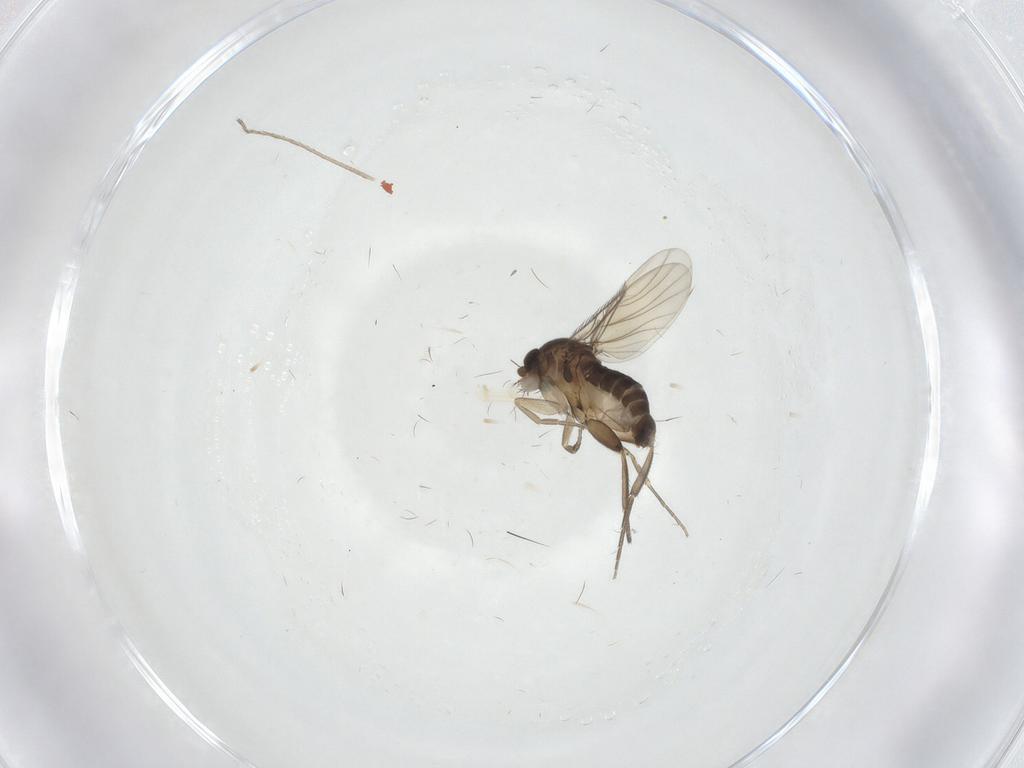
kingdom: Animalia
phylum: Arthropoda
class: Insecta
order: Diptera
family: Phoridae
